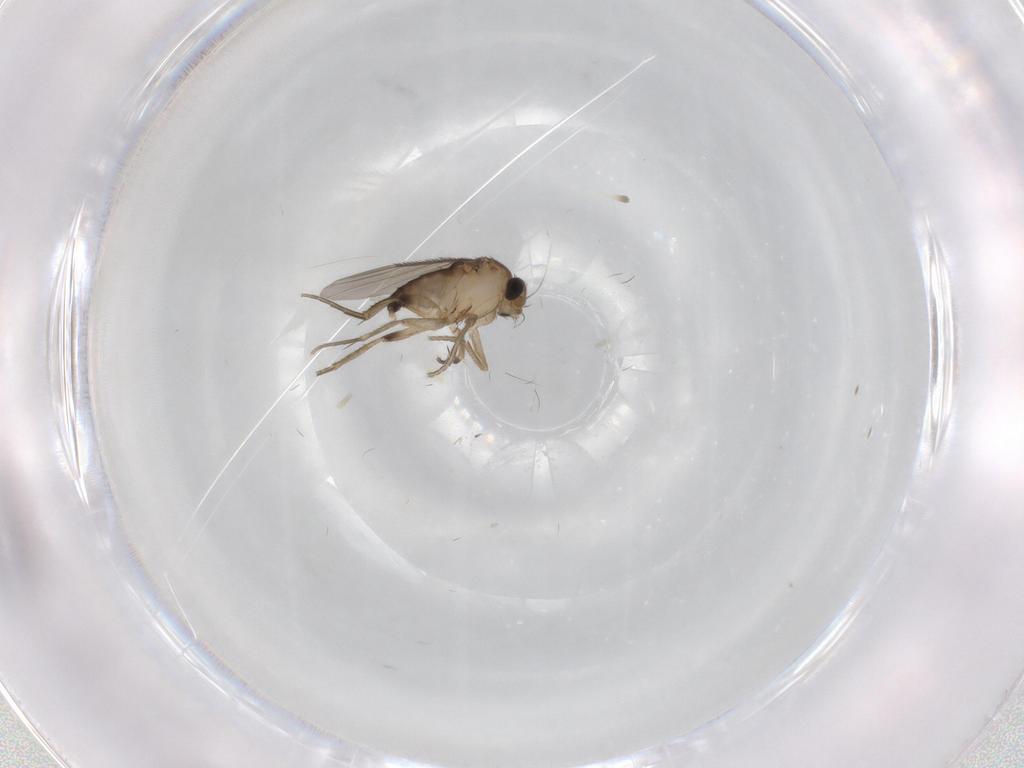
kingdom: Animalia
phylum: Arthropoda
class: Insecta
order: Diptera
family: Phoridae
